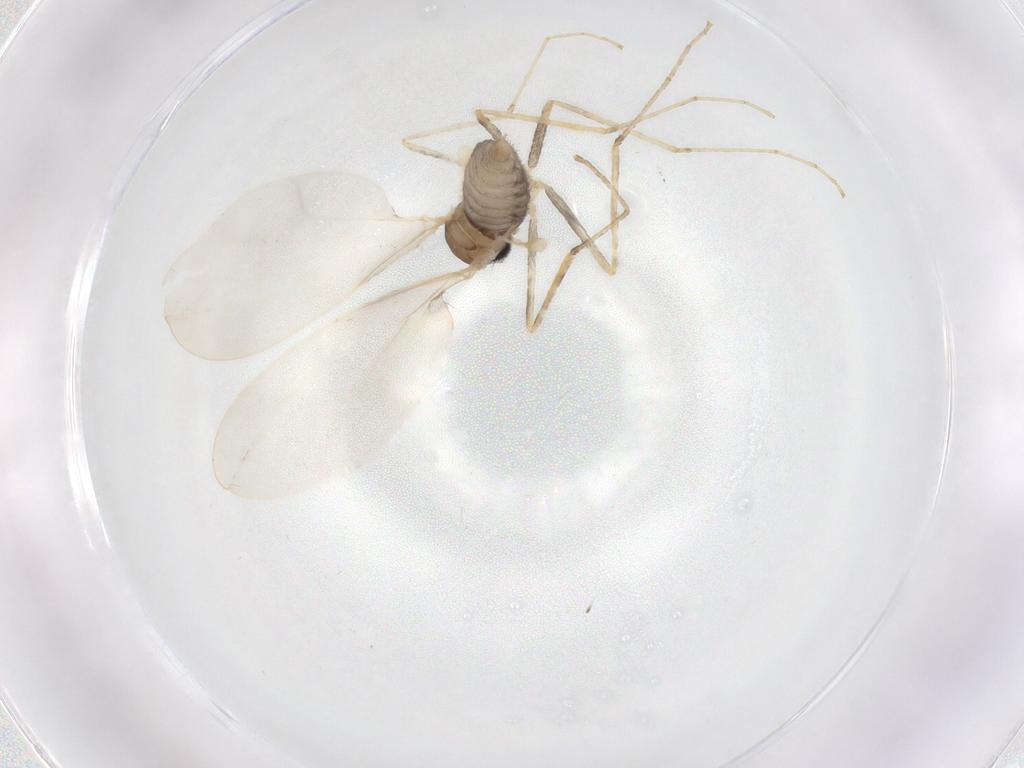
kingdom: Animalia
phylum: Arthropoda
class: Insecta
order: Diptera
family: Cecidomyiidae
